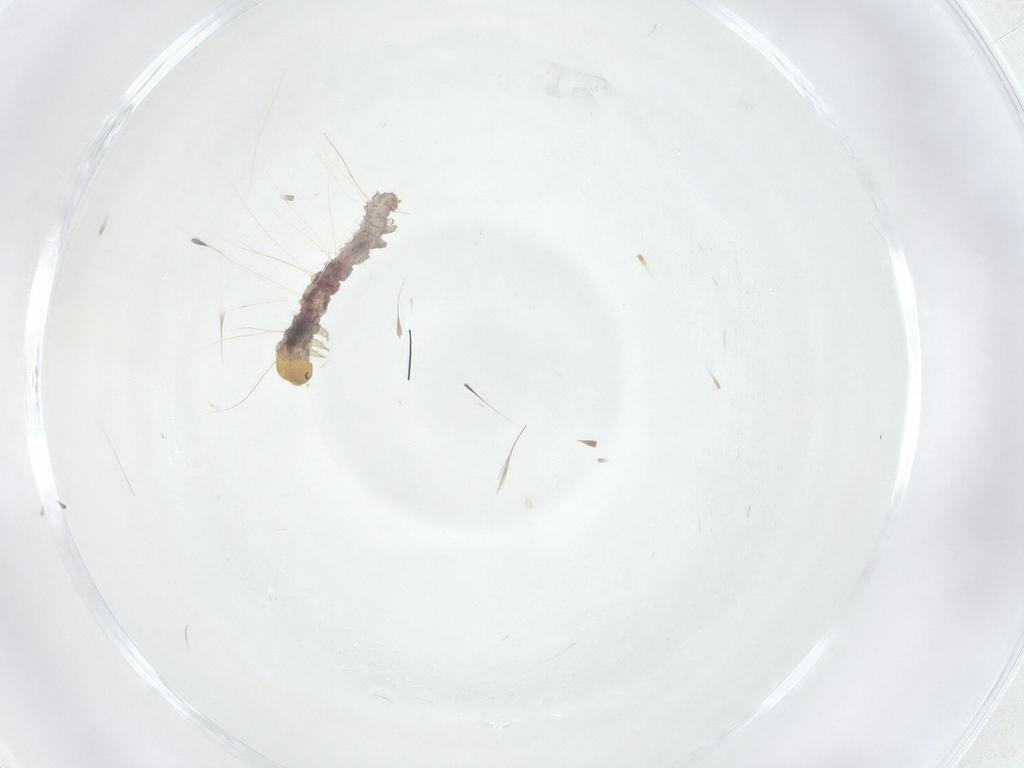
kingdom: Animalia
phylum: Arthropoda
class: Insecta
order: Lepidoptera
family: Erebidae
